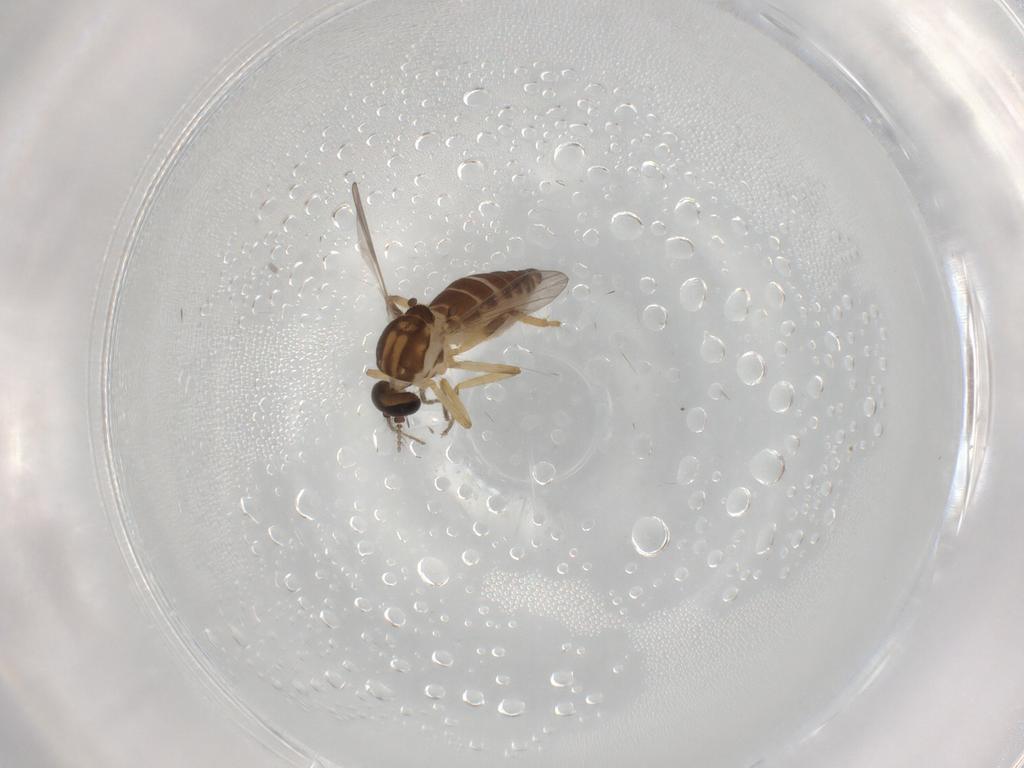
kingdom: Animalia
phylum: Arthropoda
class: Insecta
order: Diptera
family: Ceratopogonidae
